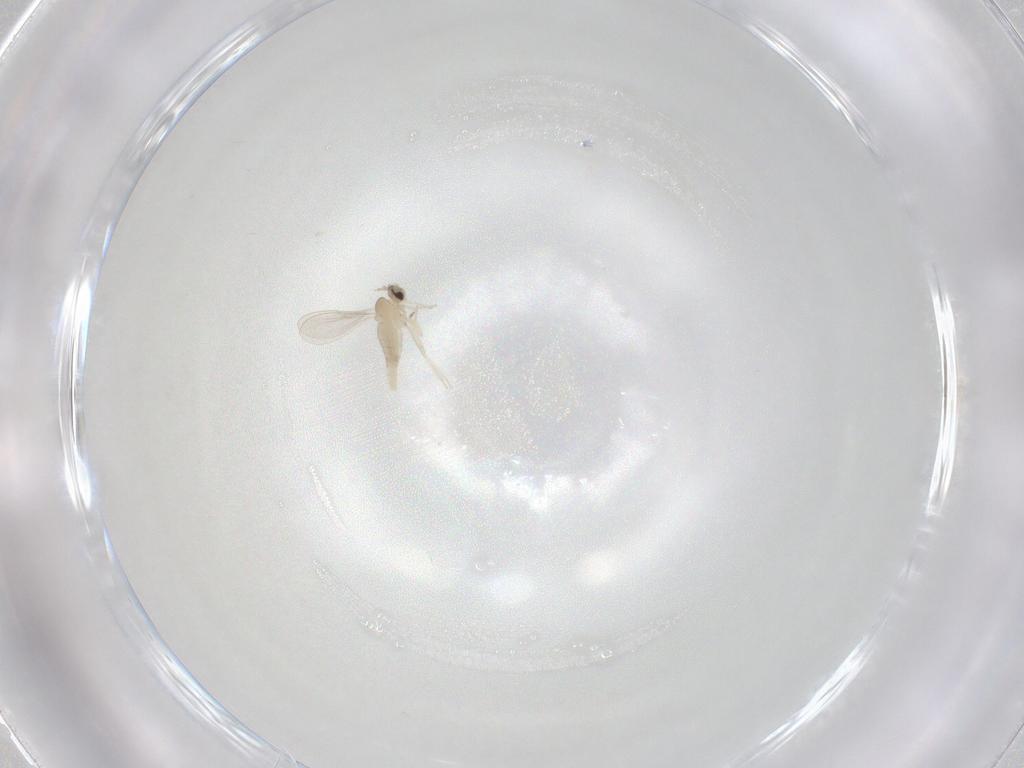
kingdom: Animalia
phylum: Arthropoda
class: Insecta
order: Diptera
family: Cecidomyiidae
